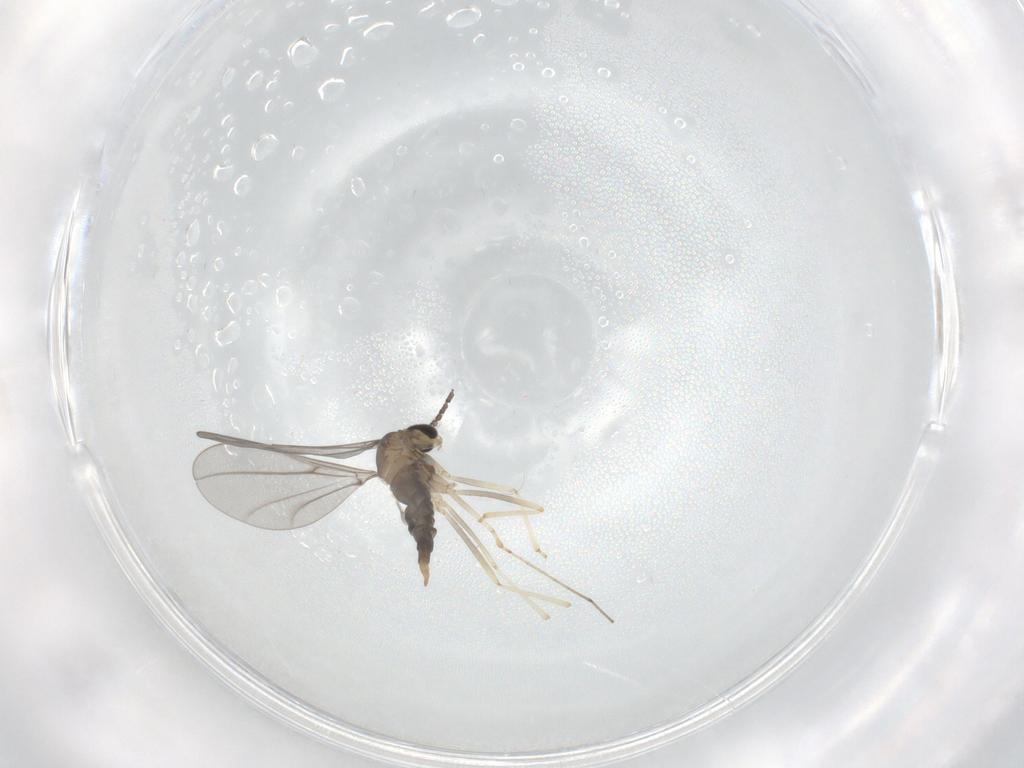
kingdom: Animalia
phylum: Arthropoda
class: Insecta
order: Diptera
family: Cecidomyiidae
